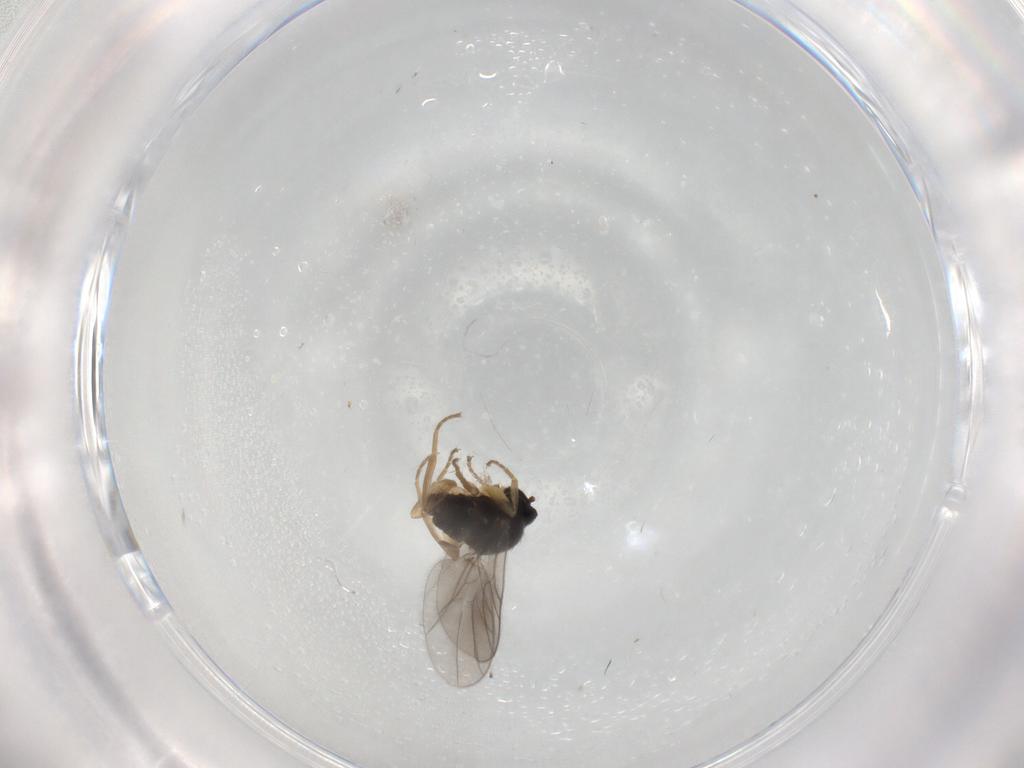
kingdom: Animalia
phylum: Arthropoda
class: Insecta
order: Diptera
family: Hybotidae
